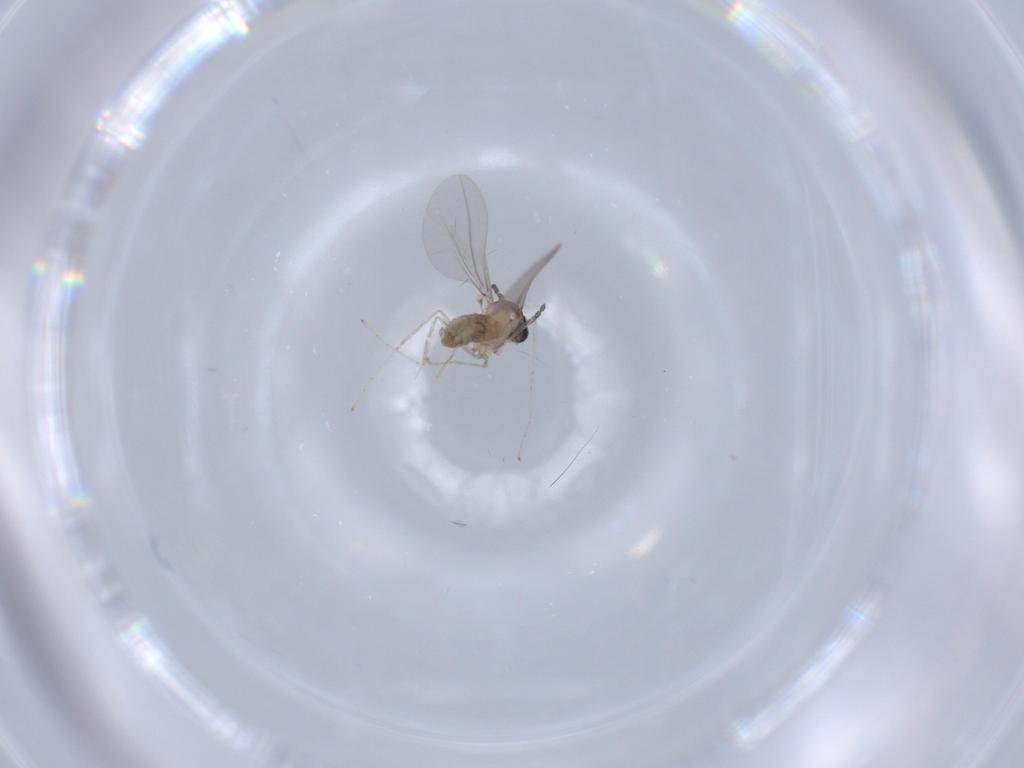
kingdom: Animalia
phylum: Arthropoda
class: Insecta
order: Diptera
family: Cecidomyiidae
